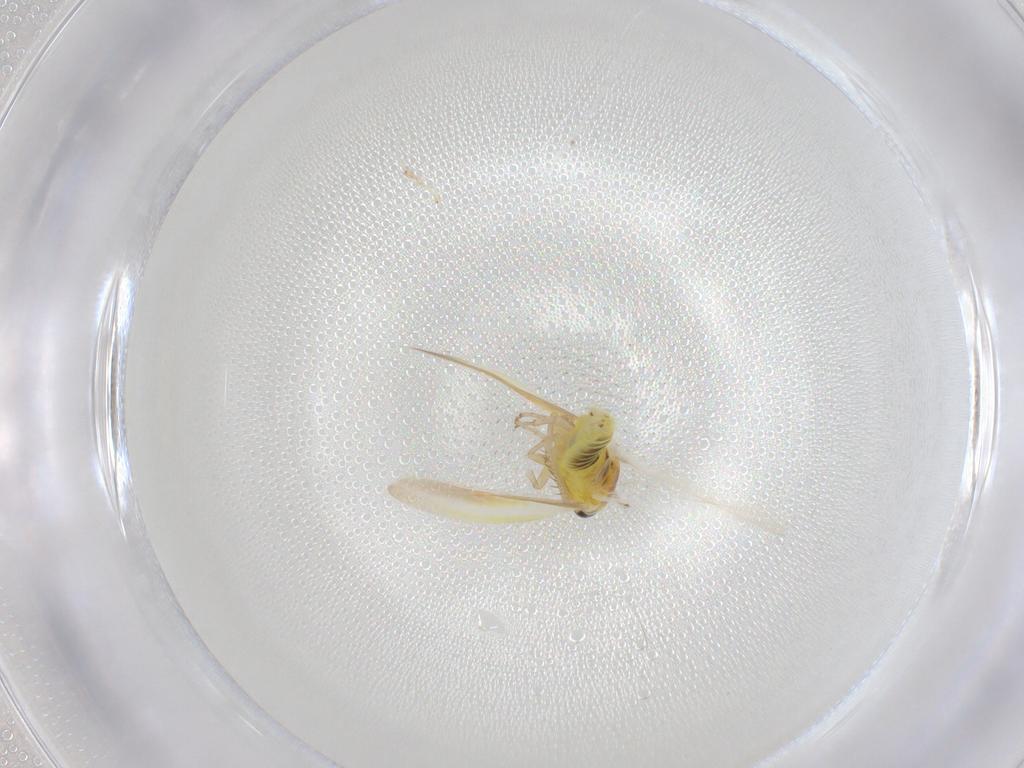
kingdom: Animalia
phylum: Arthropoda
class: Insecta
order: Hemiptera
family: Cicadellidae
